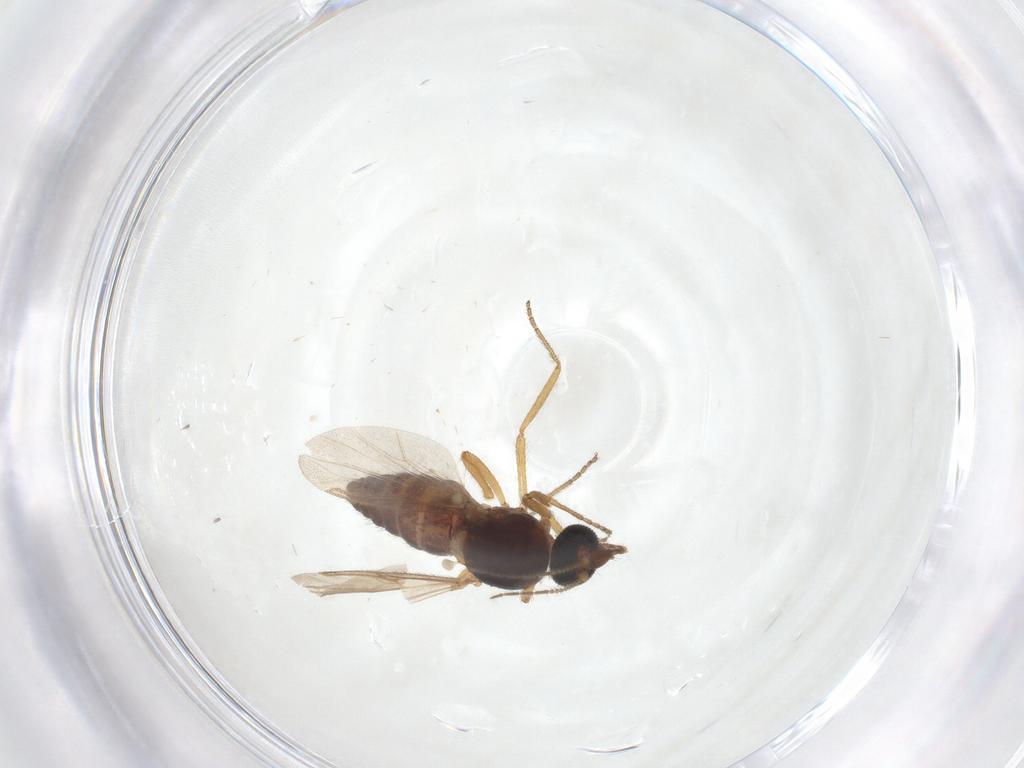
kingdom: Animalia
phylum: Arthropoda
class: Insecta
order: Diptera
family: Ceratopogonidae
